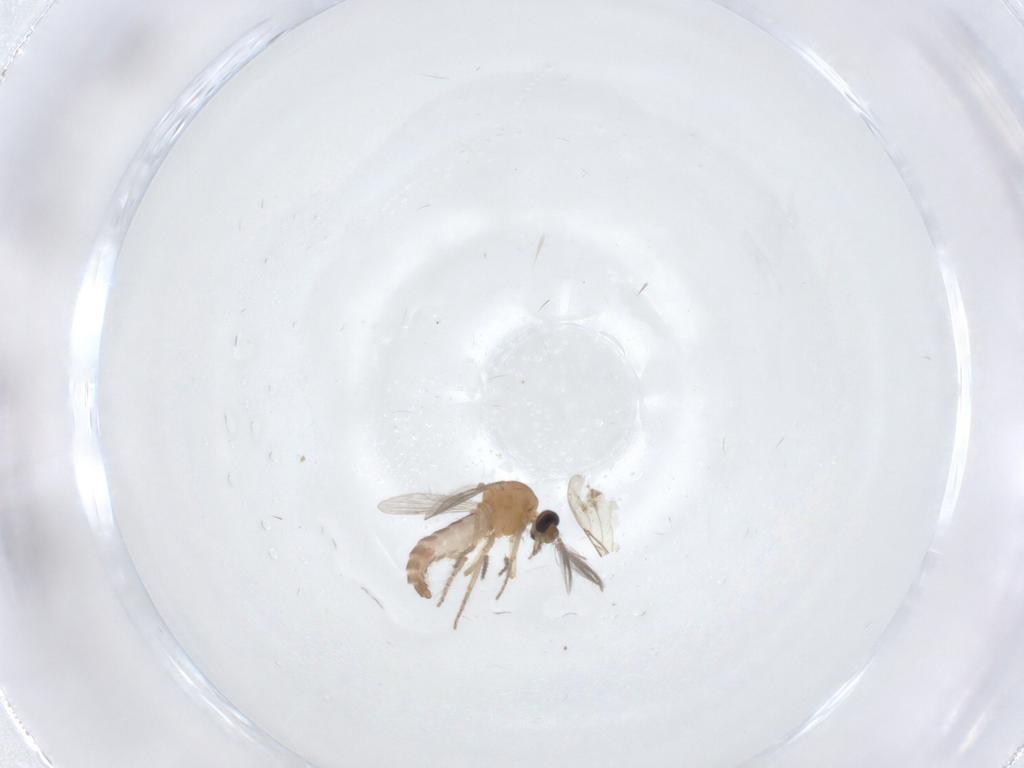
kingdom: Animalia
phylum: Arthropoda
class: Insecta
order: Diptera
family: Ceratopogonidae
